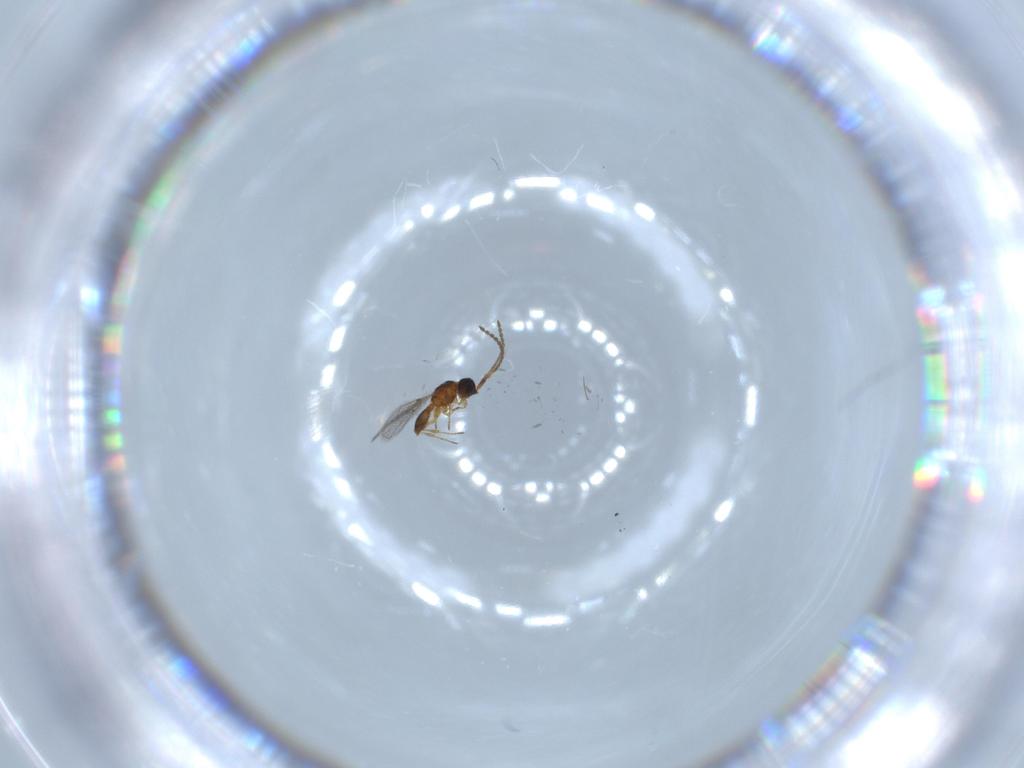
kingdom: Animalia
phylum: Arthropoda
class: Insecta
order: Hymenoptera
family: Diapriidae
